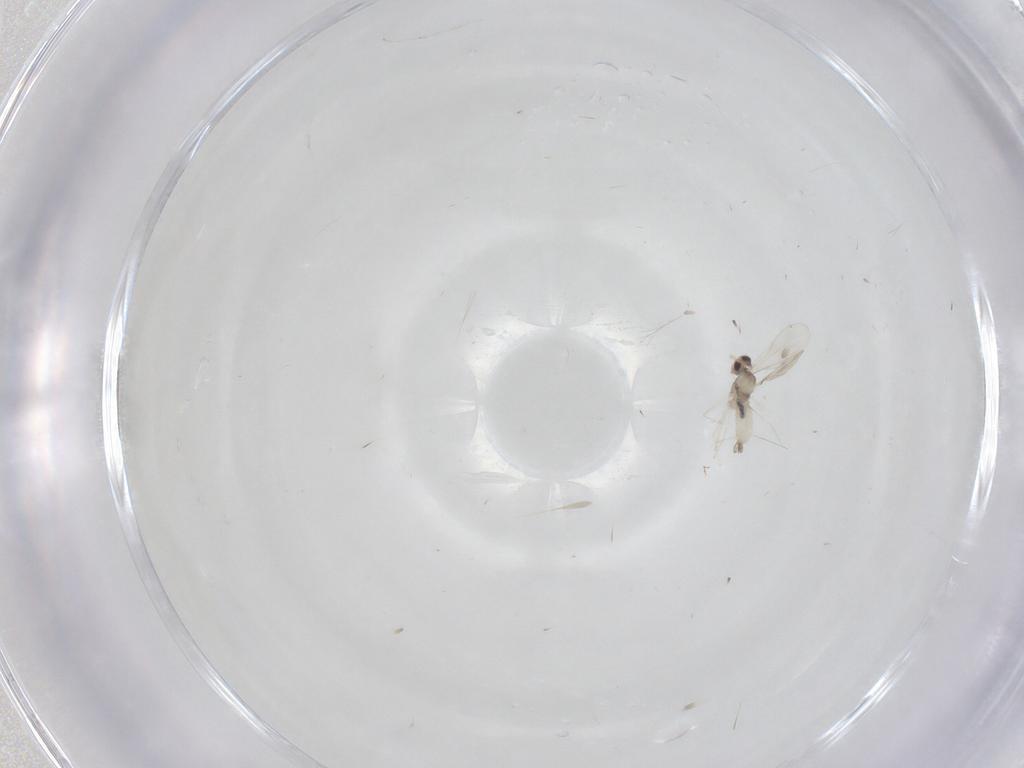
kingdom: Animalia
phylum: Arthropoda
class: Insecta
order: Diptera
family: Cecidomyiidae
